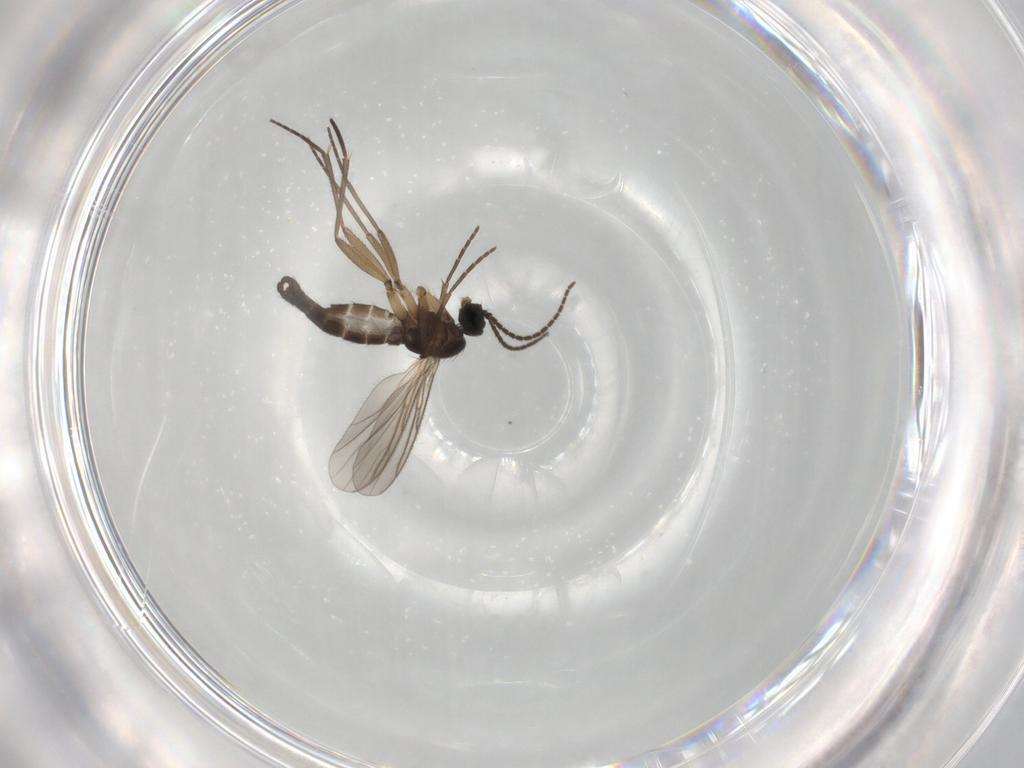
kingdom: Animalia
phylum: Arthropoda
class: Insecta
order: Diptera
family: Chironomidae
